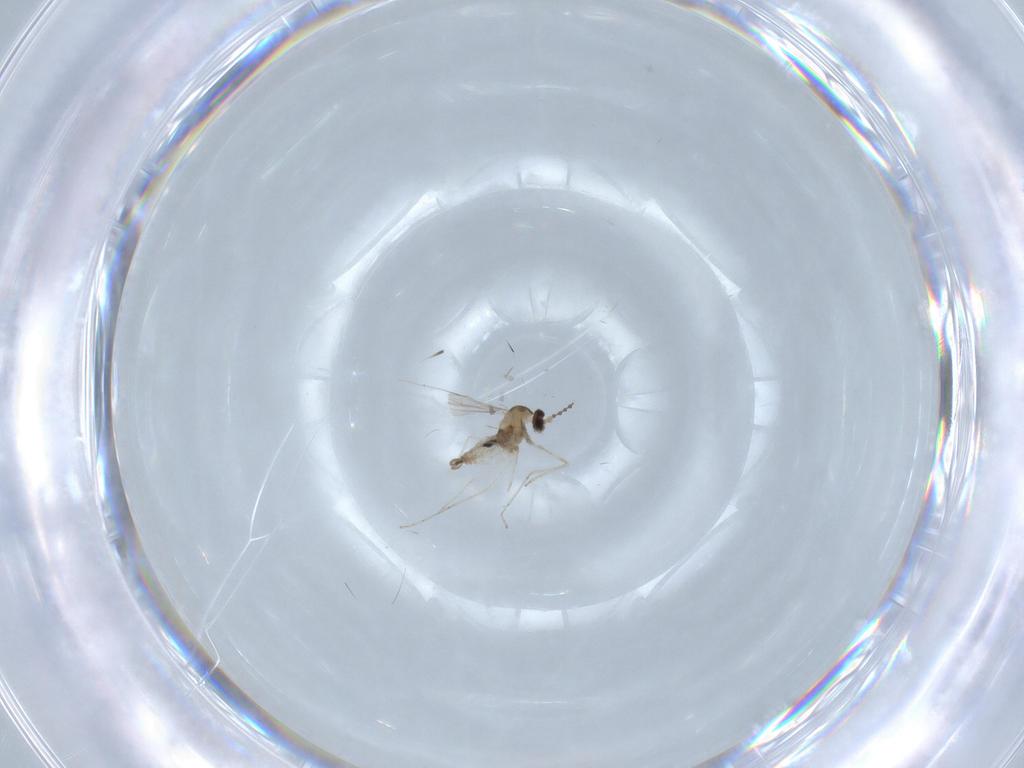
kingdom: Animalia
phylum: Arthropoda
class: Insecta
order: Diptera
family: Cecidomyiidae
